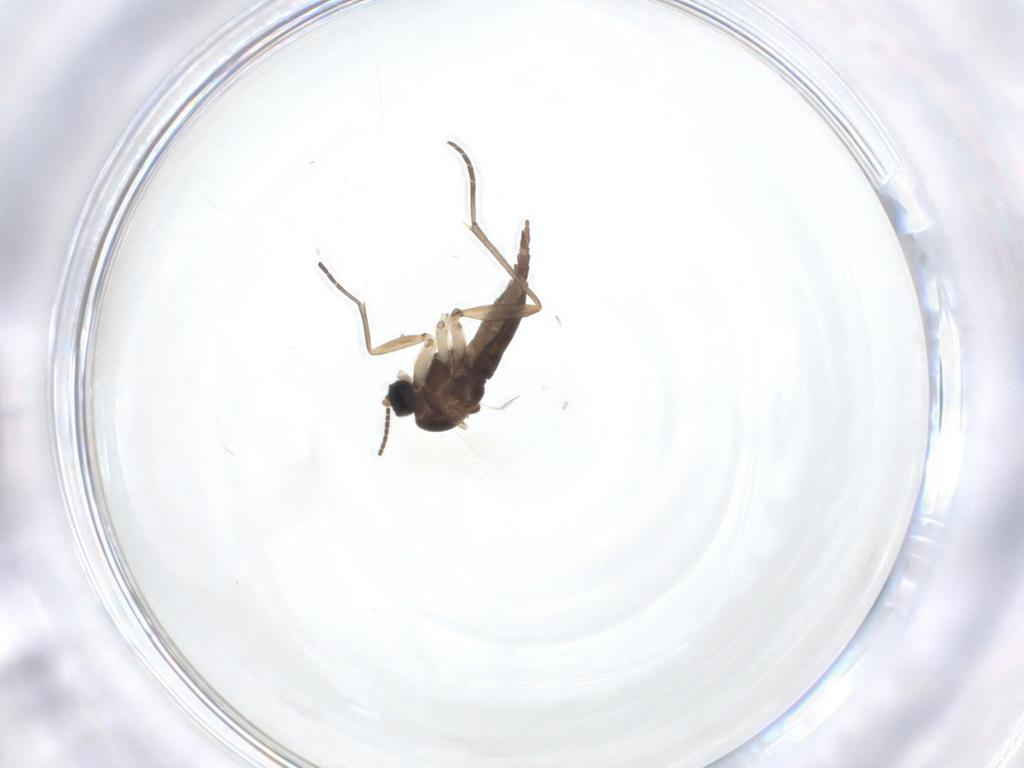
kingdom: Animalia
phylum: Arthropoda
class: Insecta
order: Diptera
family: Sciaridae
